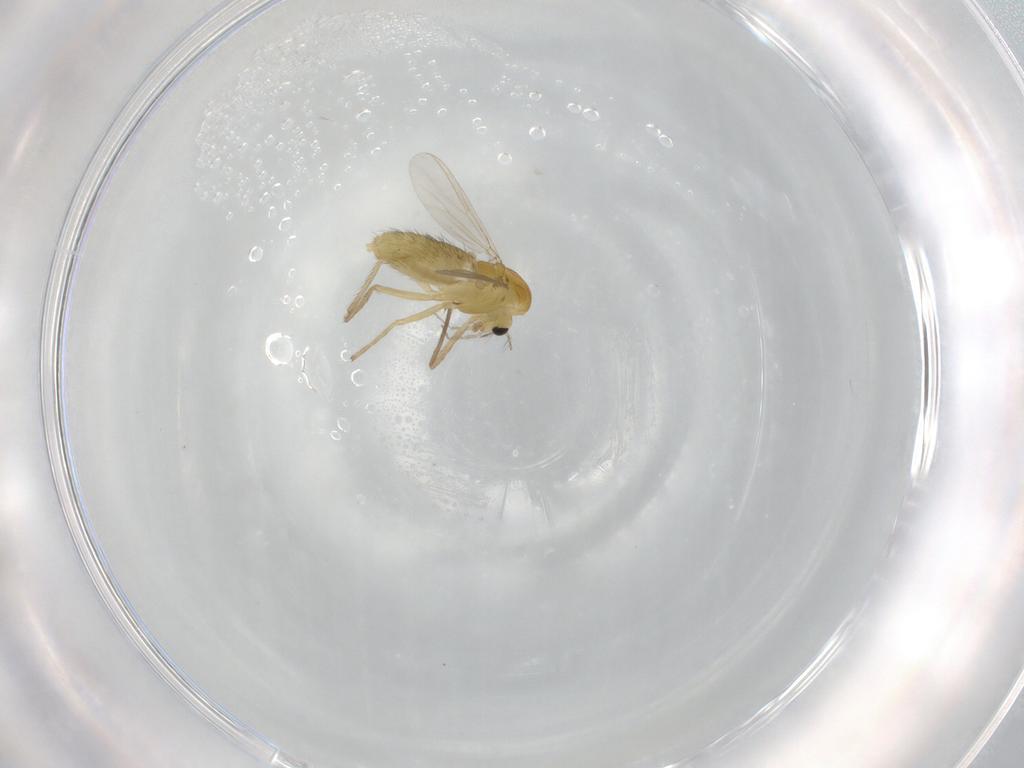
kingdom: Animalia
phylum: Arthropoda
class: Insecta
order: Diptera
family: Chironomidae
